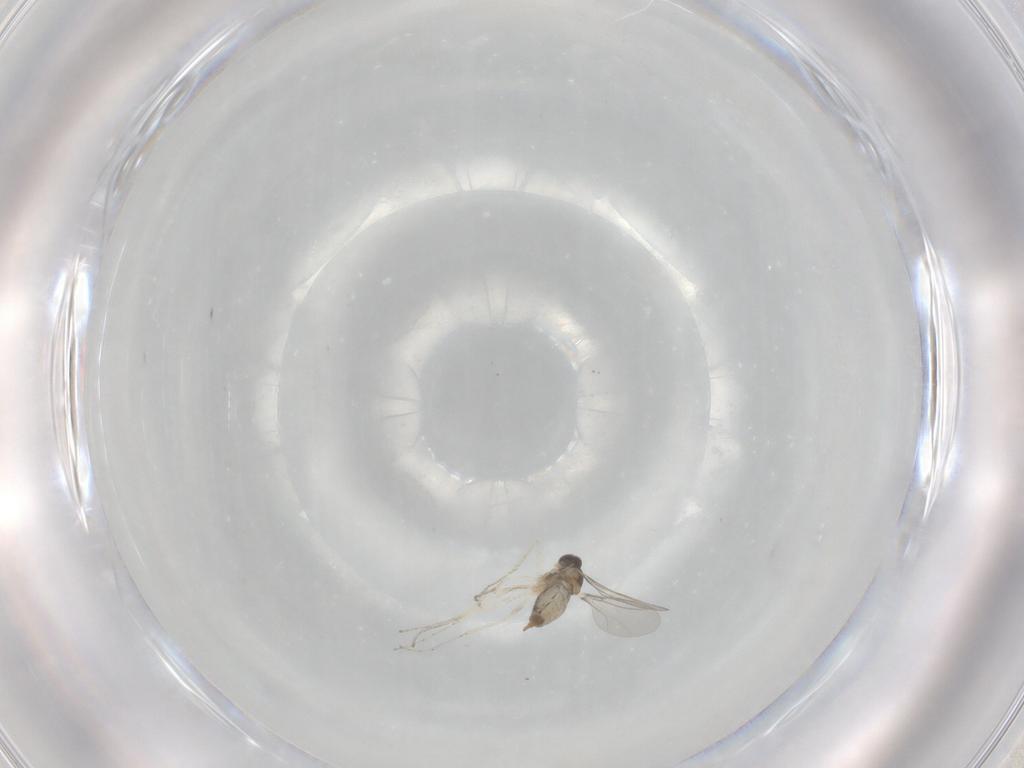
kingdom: Animalia
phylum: Arthropoda
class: Insecta
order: Diptera
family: Cecidomyiidae
